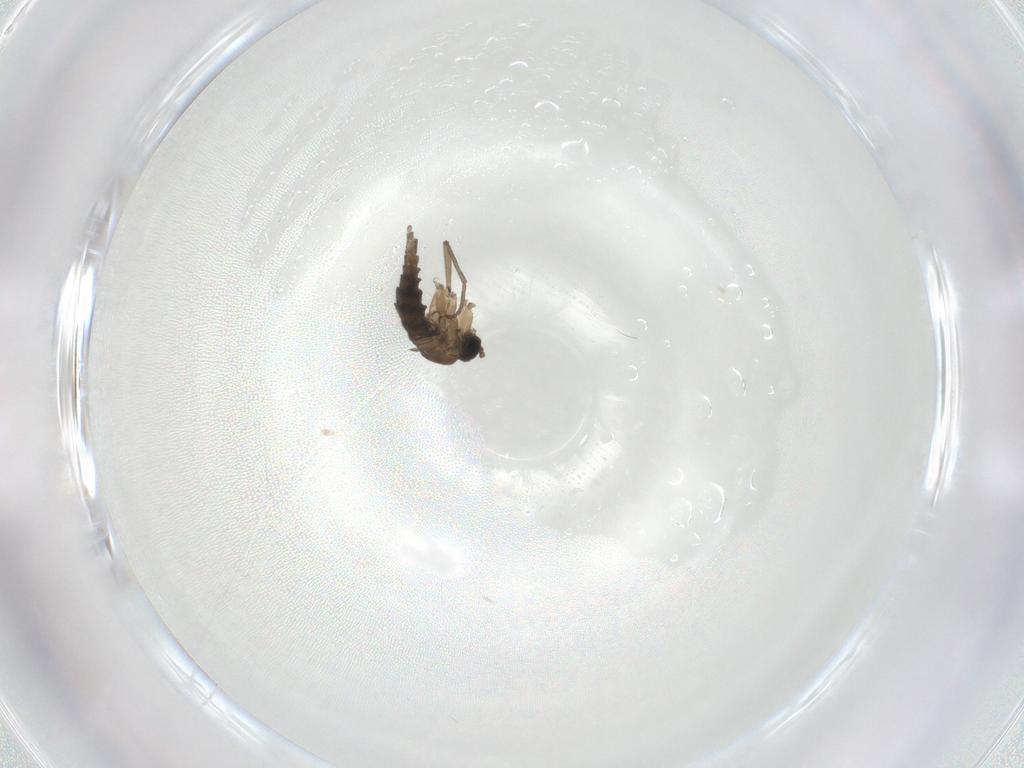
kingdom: Animalia
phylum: Arthropoda
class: Insecta
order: Diptera
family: Sciaridae
